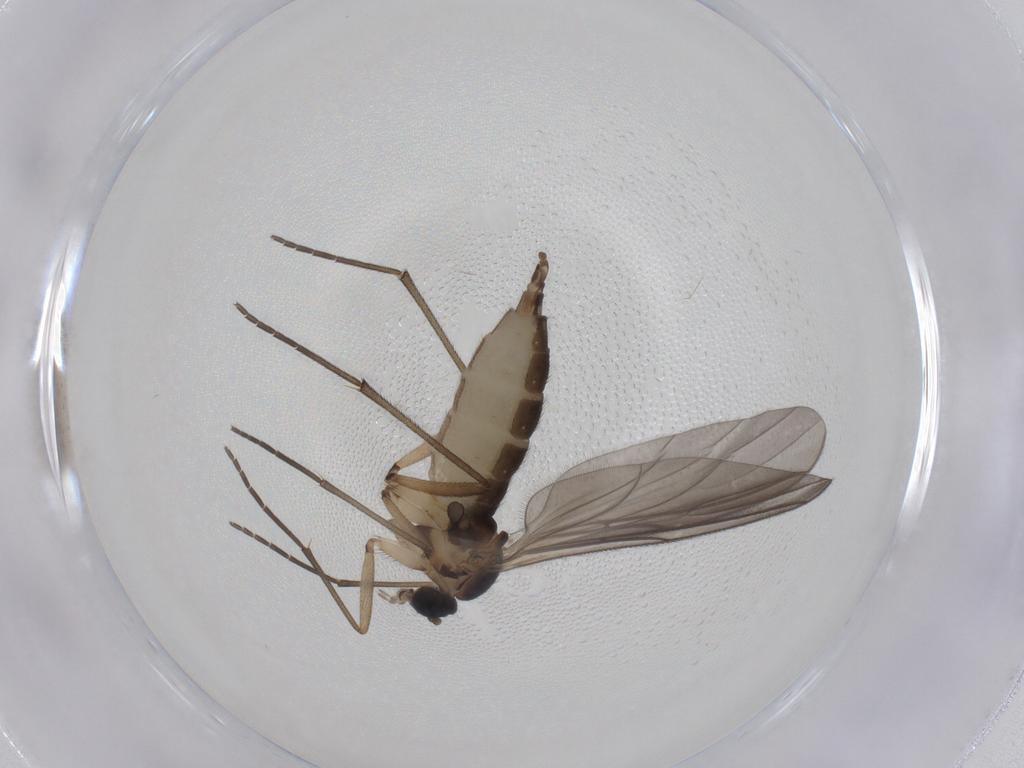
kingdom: Animalia
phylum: Arthropoda
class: Insecta
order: Diptera
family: Sciaridae
